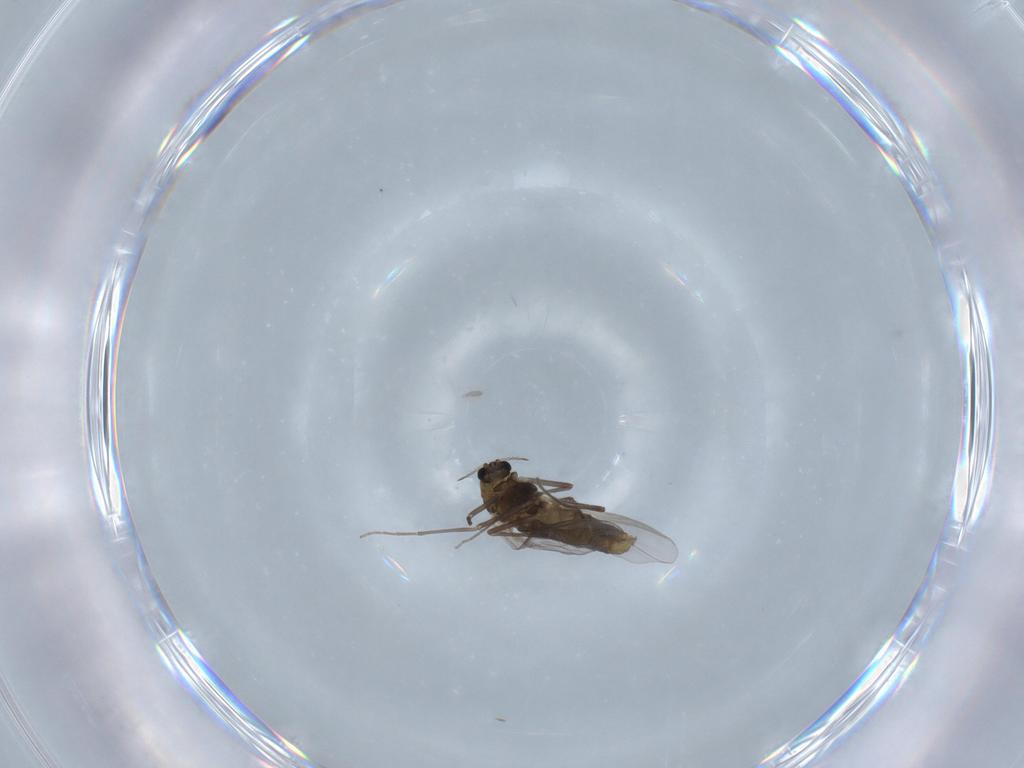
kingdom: Animalia
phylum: Arthropoda
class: Insecta
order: Diptera
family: Chironomidae
